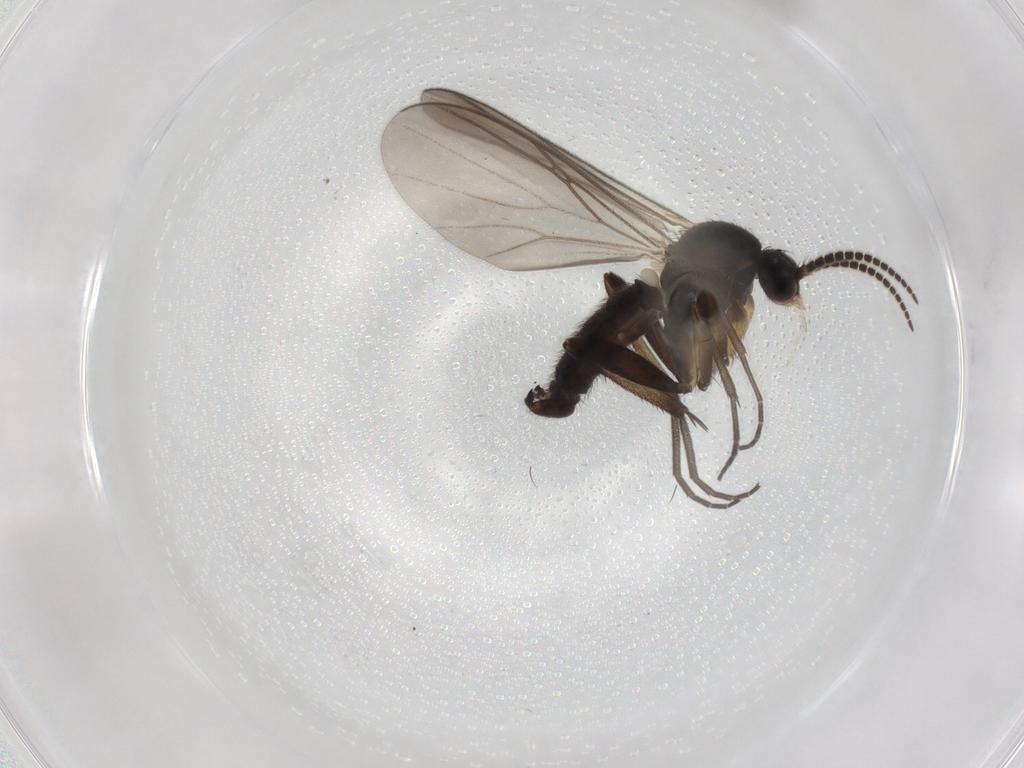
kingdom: Animalia
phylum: Arthropoda
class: Insecta
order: Diptera
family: Mycetophilidae
